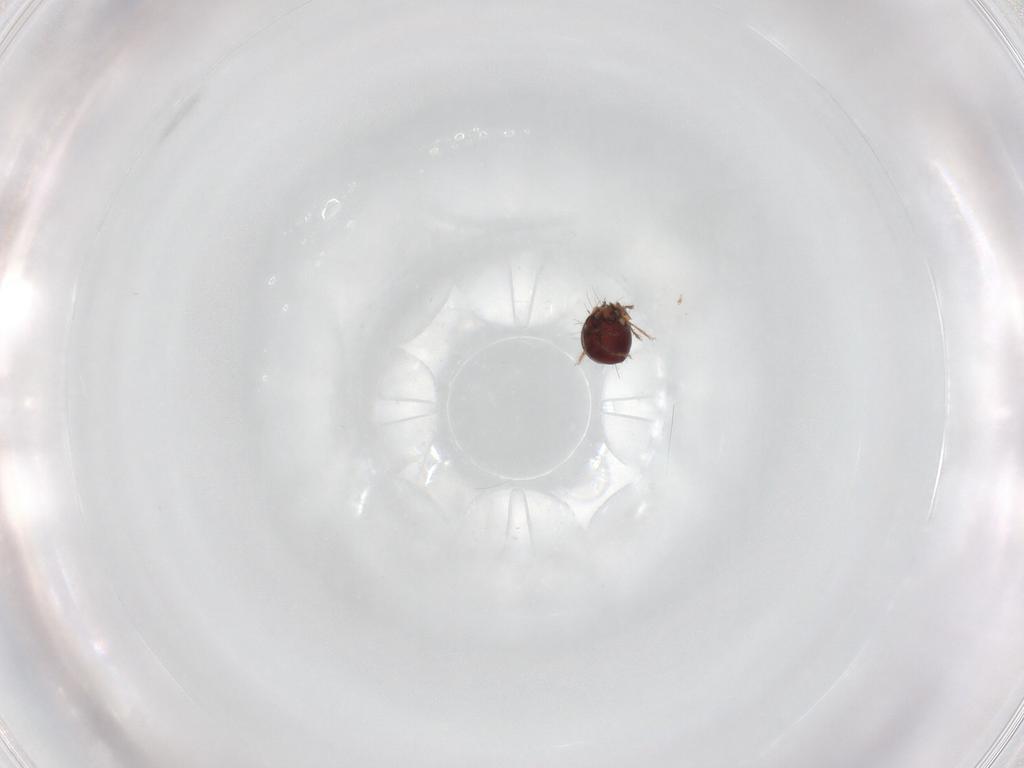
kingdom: Animalia
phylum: Arthropoda
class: Arachnida
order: Sarcoptiformes
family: Humerobatidae
